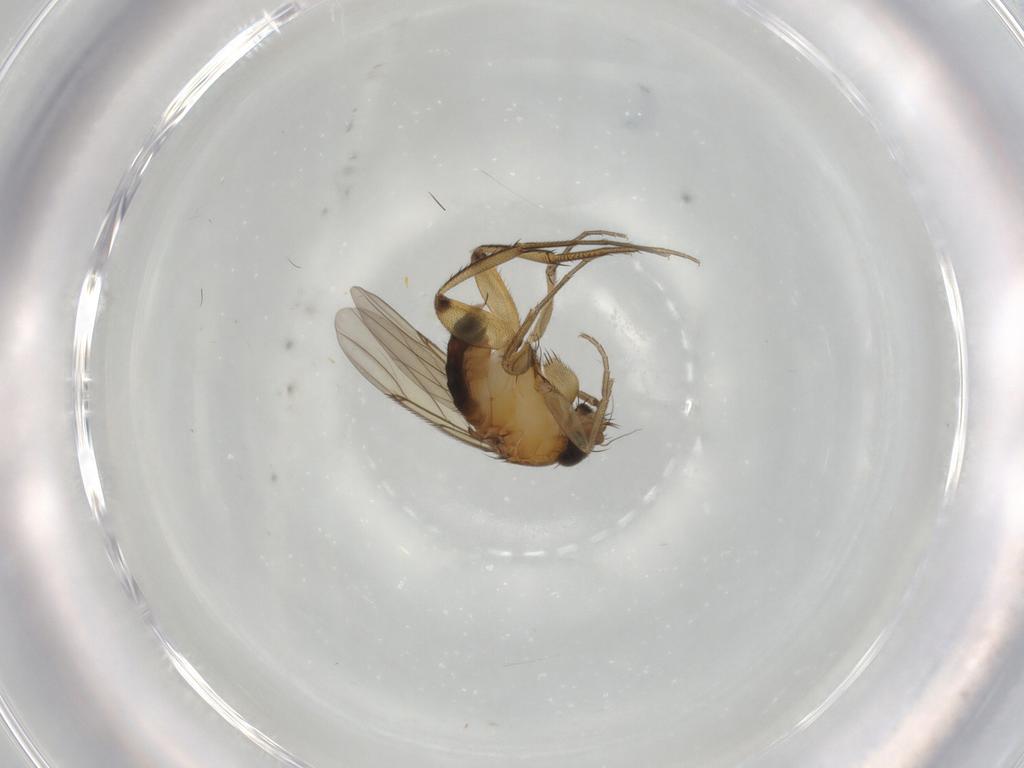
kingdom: Animalia
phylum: Arthropoda
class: Insecta
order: Diptera
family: Phoridae
